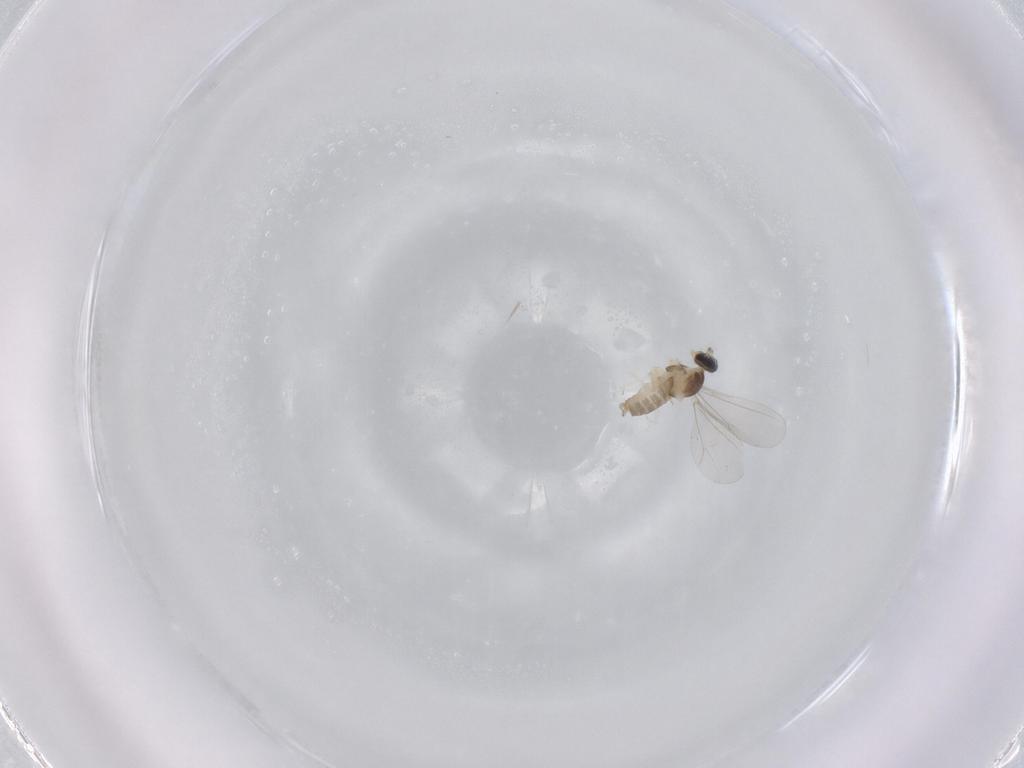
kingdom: Animalia
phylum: Arthropoda
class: Insecta
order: Diptera
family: Cecidomyiidae
